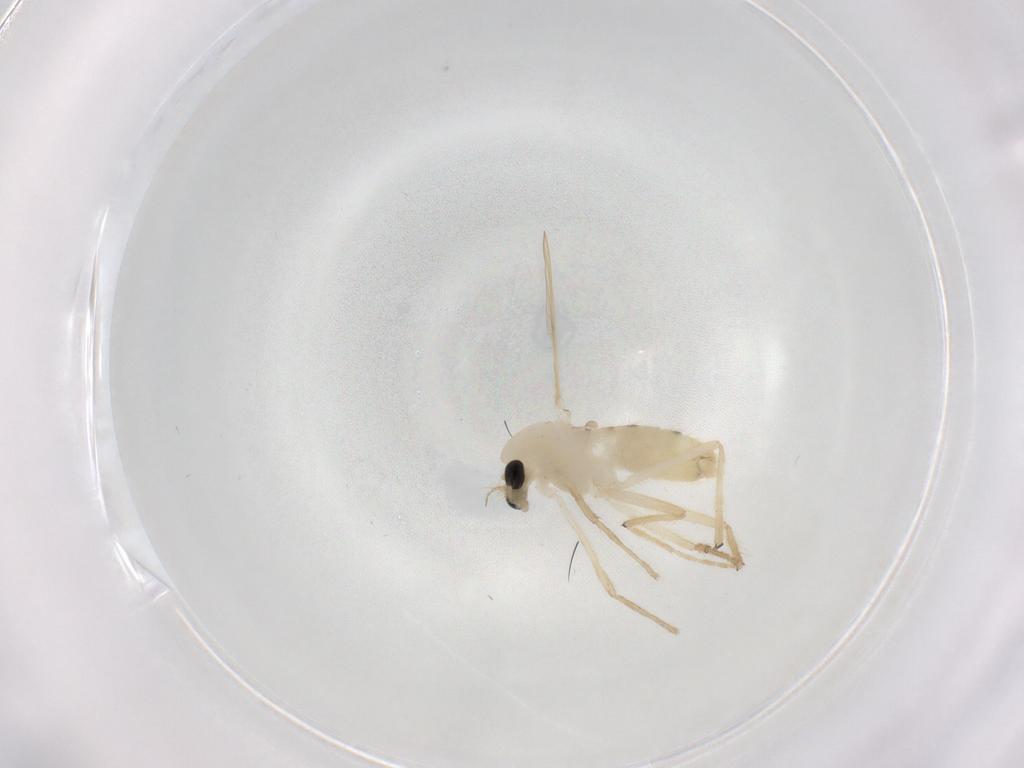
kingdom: Animalia
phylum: Arthropoda
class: Insecta
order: Diptera
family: Chironomidae
